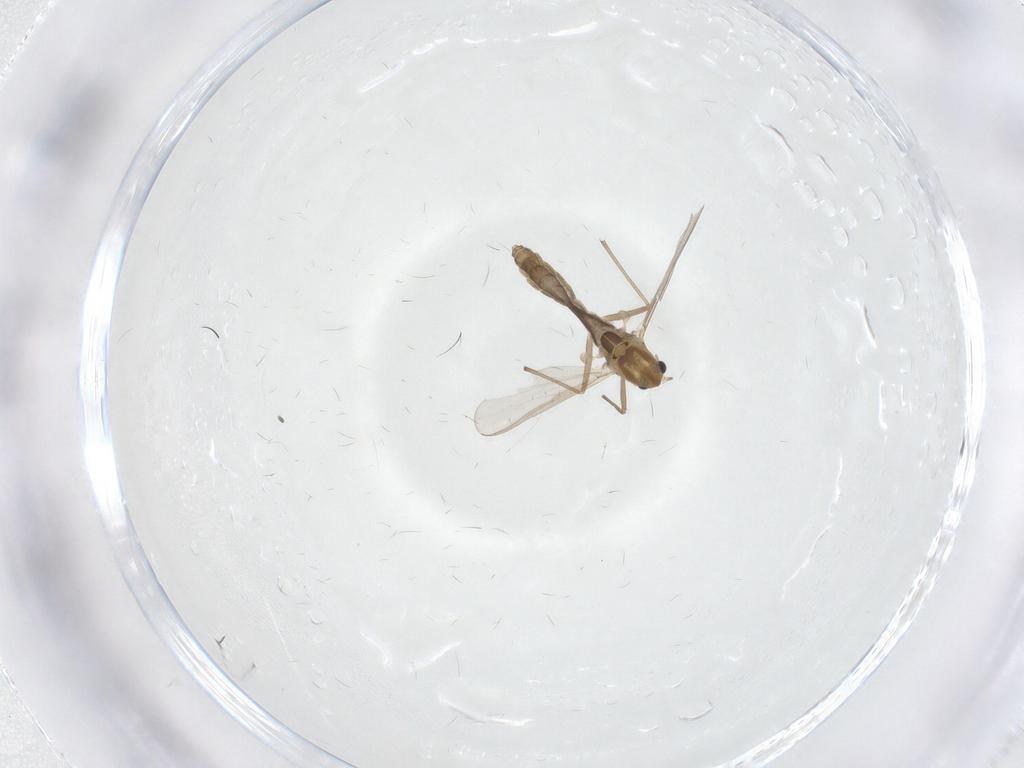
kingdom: Animalia
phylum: Arthropoda
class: Insecta
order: Diptera
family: Chironomidae
